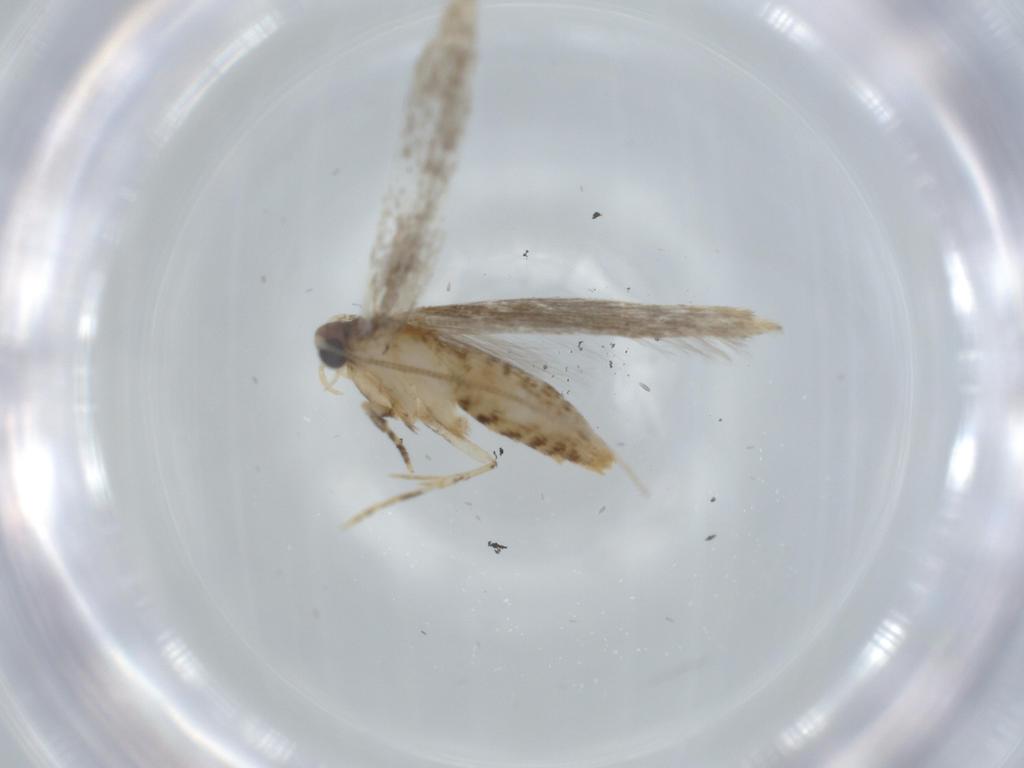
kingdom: Animalia
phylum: Arthropoda
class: Insecta
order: Lepidoptera
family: Tineidae
